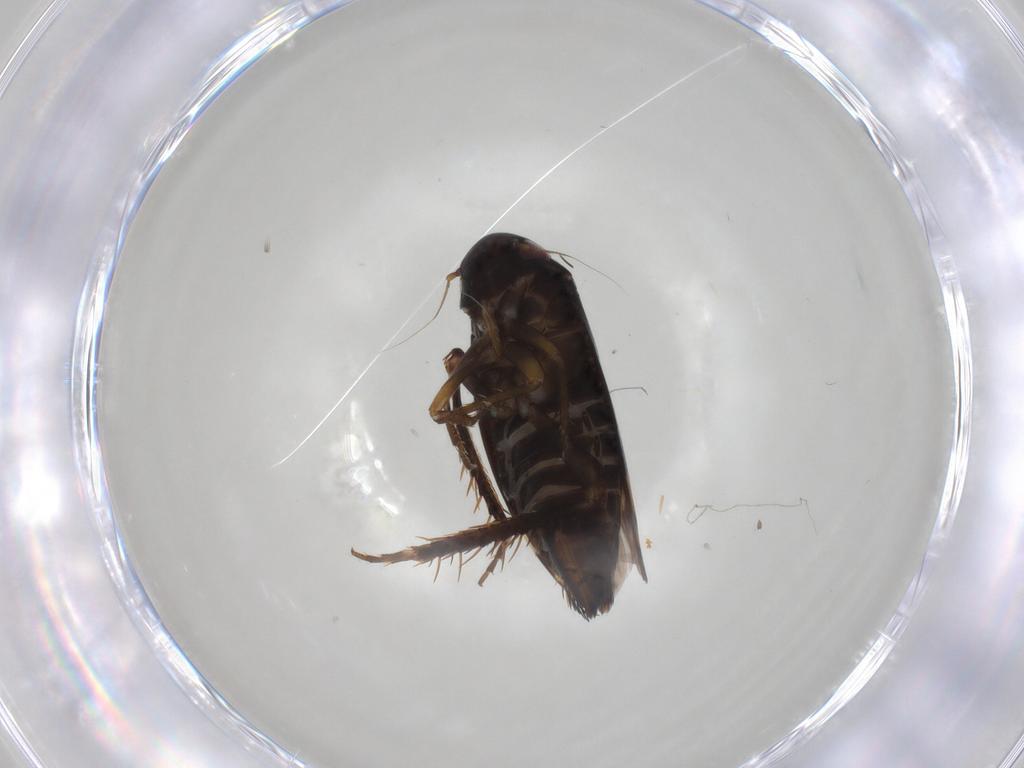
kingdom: Animalia
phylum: Arthropoda
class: Insecta
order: Hemiptera
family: Cicadellidae
